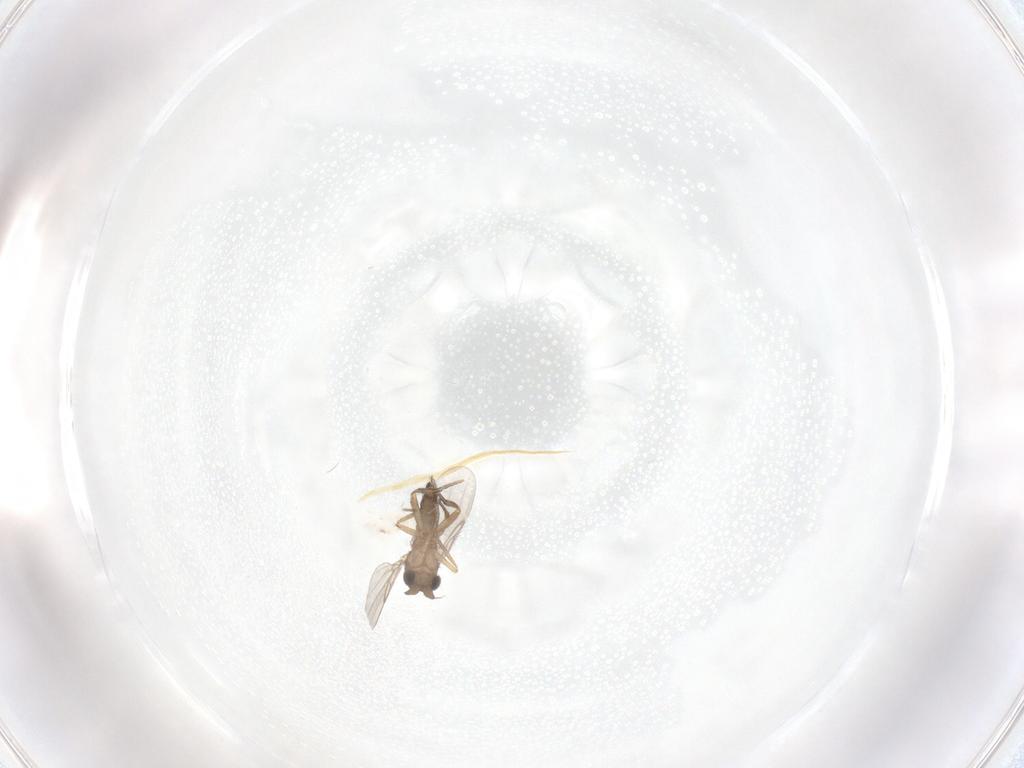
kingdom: Animalia
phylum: Arthropoda
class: Insecta
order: Diptera
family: Phoridae
